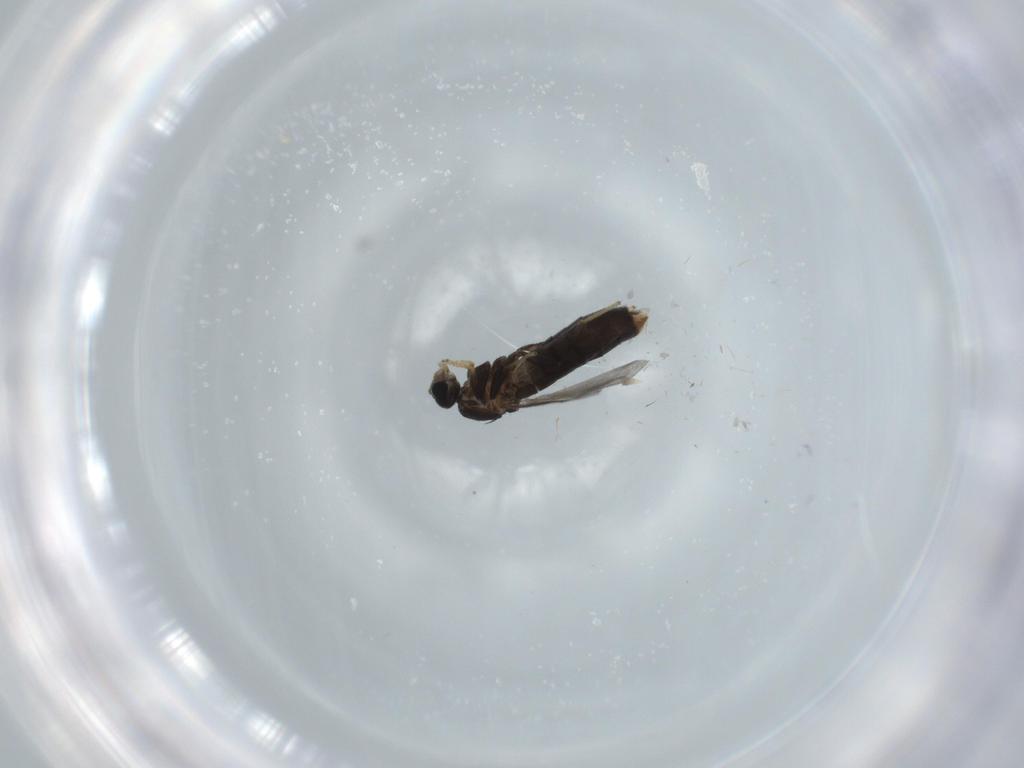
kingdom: Animalia
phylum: Arthropoda
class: Insecta
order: Diptera
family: Scatopsidae
